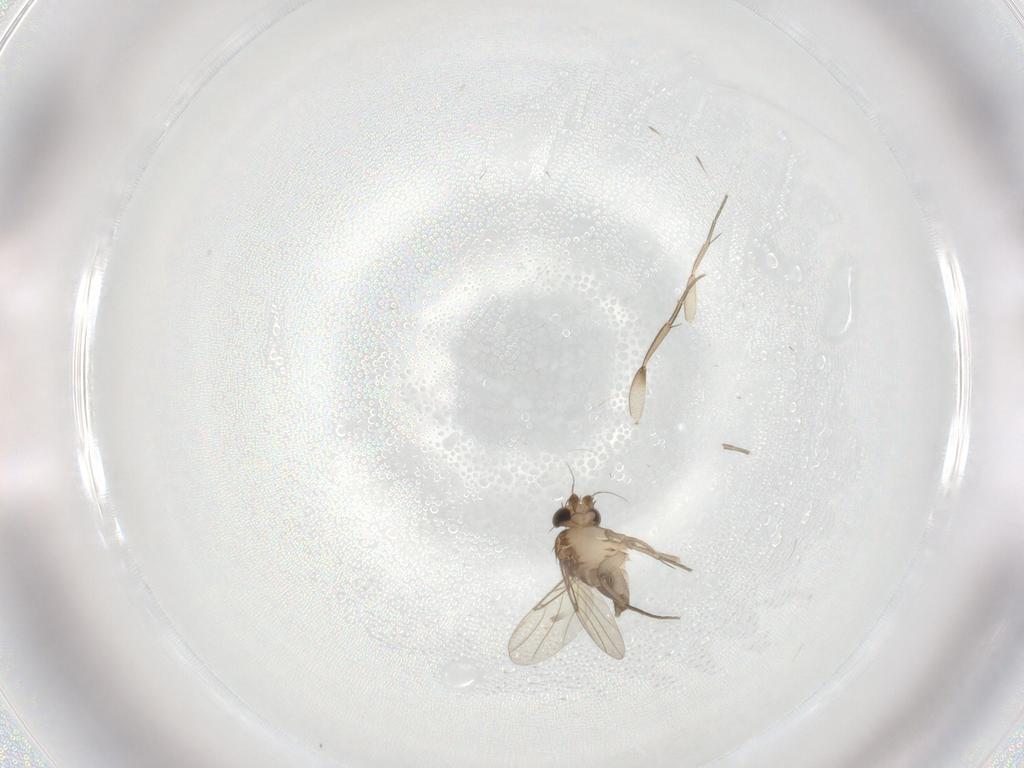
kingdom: Animalia
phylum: Arthropoda
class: Insecta
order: Diptera
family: Phoridae
